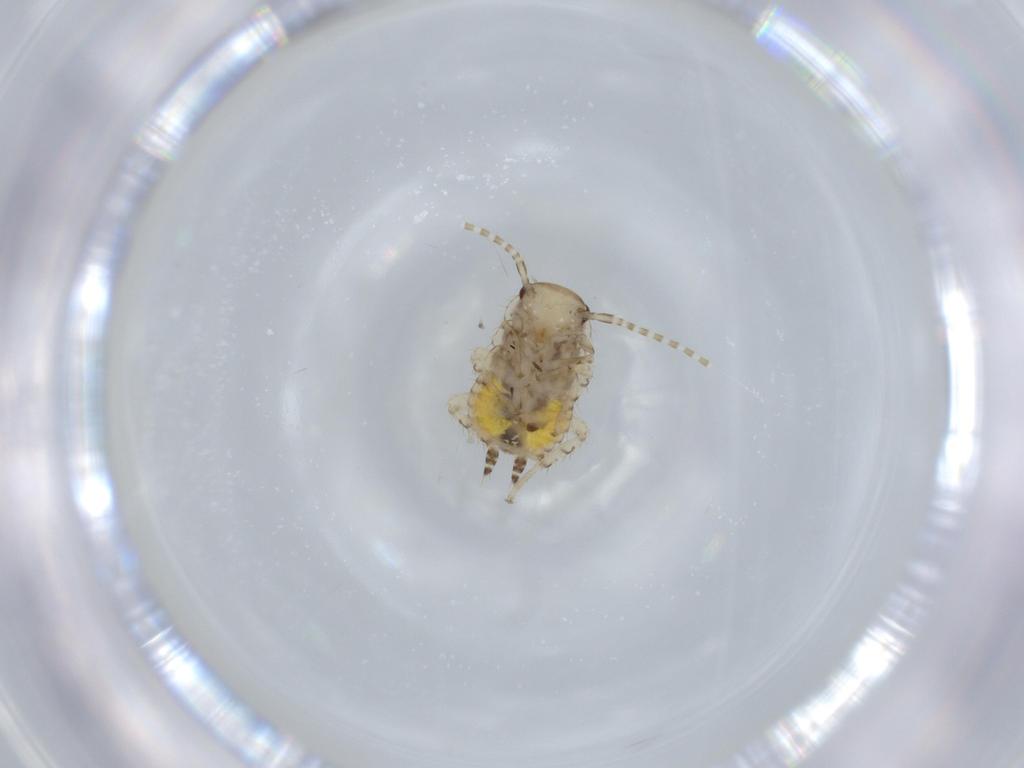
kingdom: Animalia
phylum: Arthropoda
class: Insecta
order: Blattodea
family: Ectobiidae
